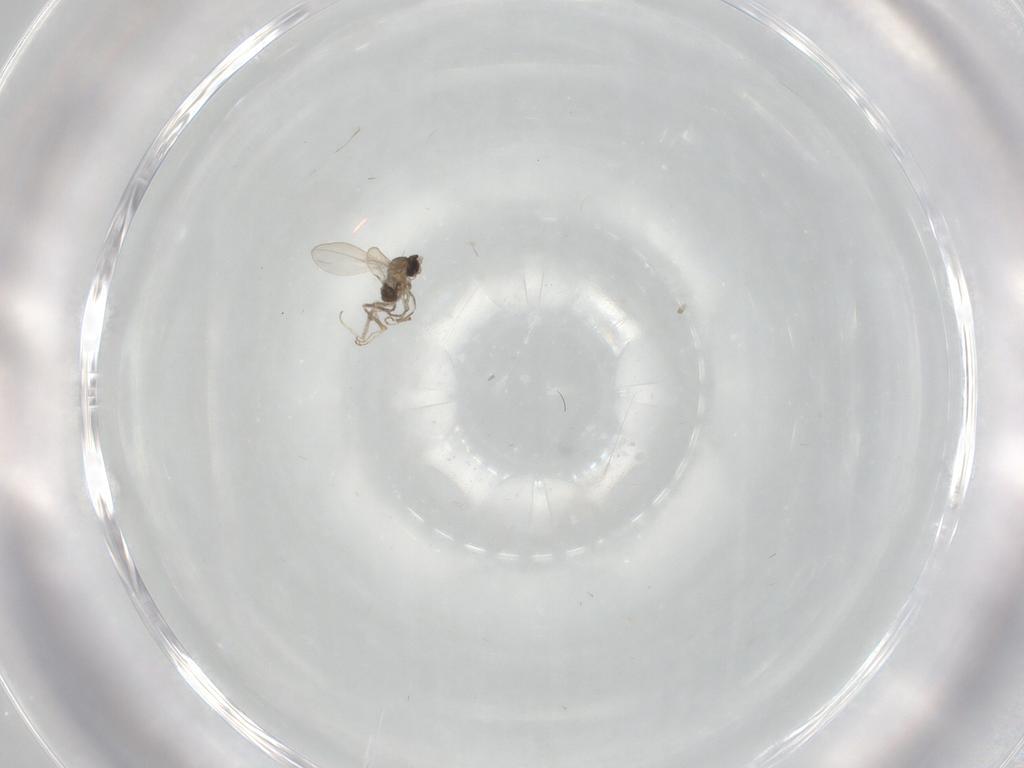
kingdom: Animalia
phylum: Arthropoda
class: Insecta
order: Diptera
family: Cecidomyiidae
